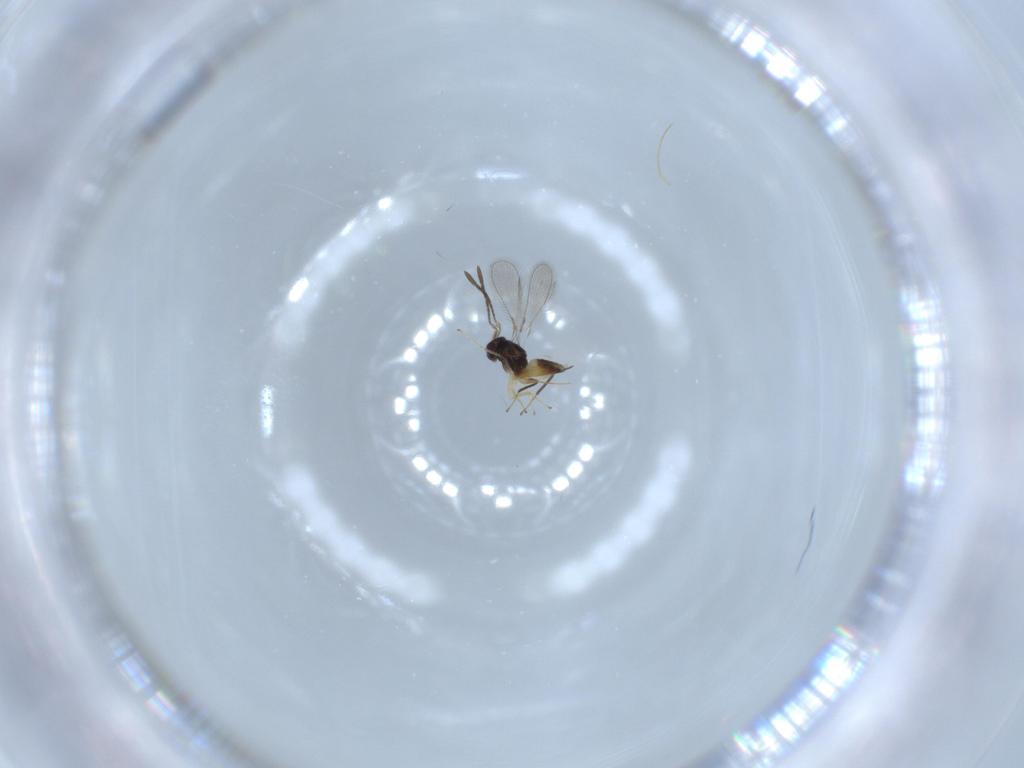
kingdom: Animalia
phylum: Arthropoda
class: Insecta
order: Hymenoptera
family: Mymaridae
